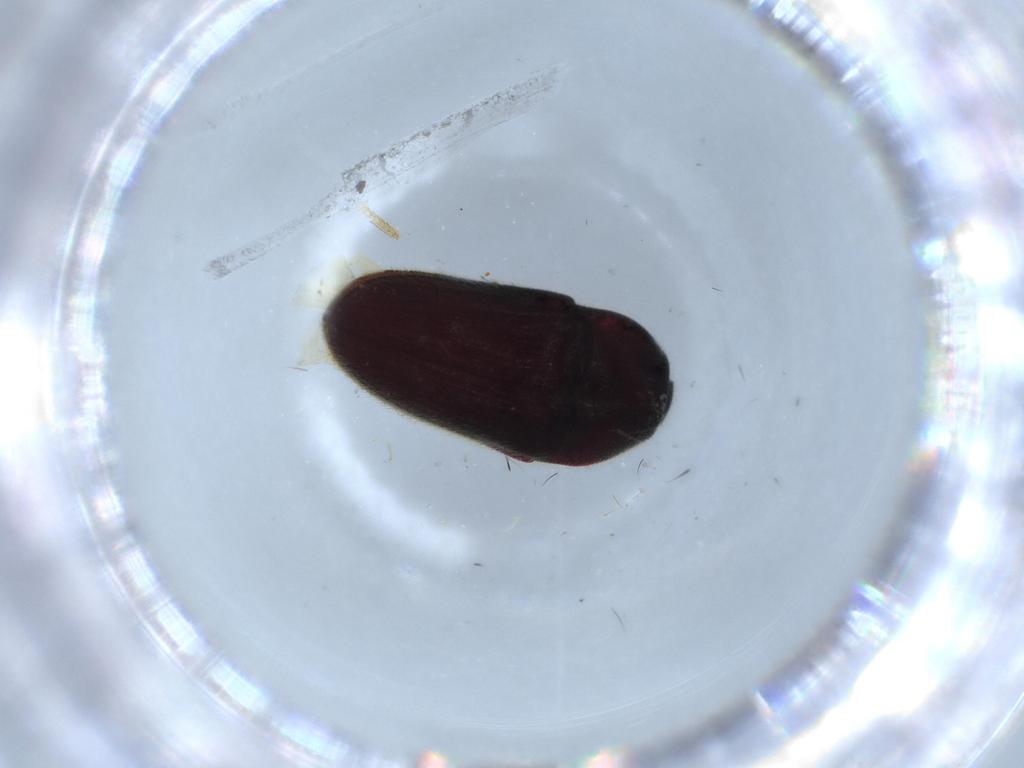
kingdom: Animalia
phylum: Arthropoda
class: Insecta
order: Coleoptera
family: Throscidae
